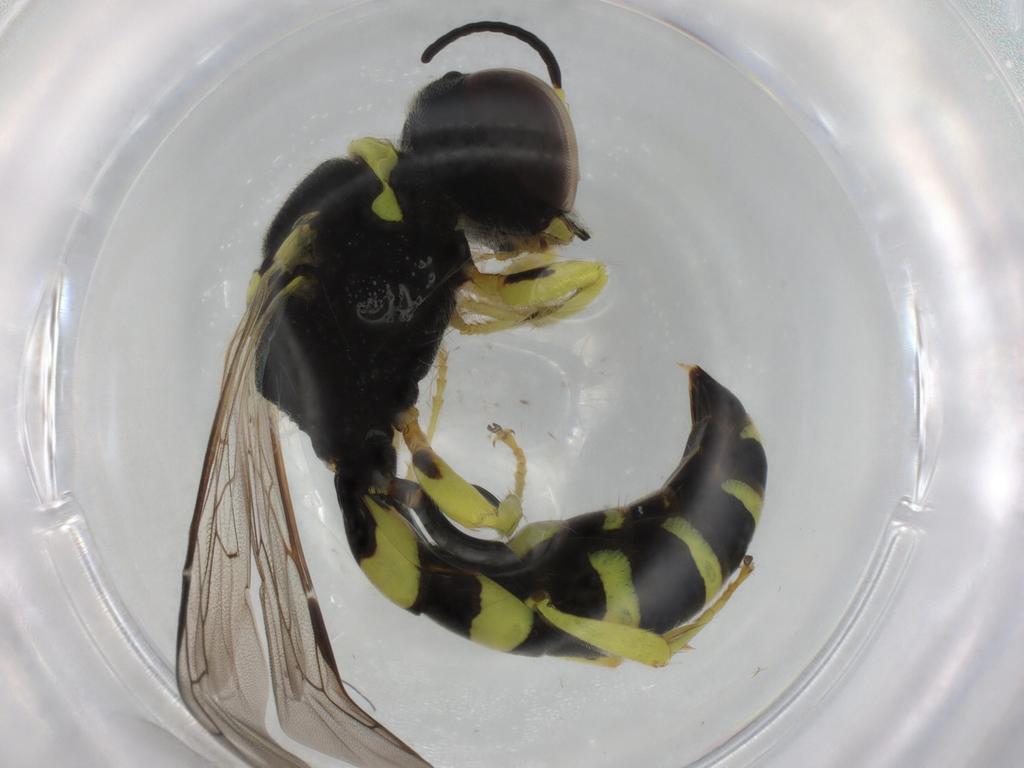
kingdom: Animalia
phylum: Arthropoda
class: Insecta
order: Hymenoptera
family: Crabronidae
